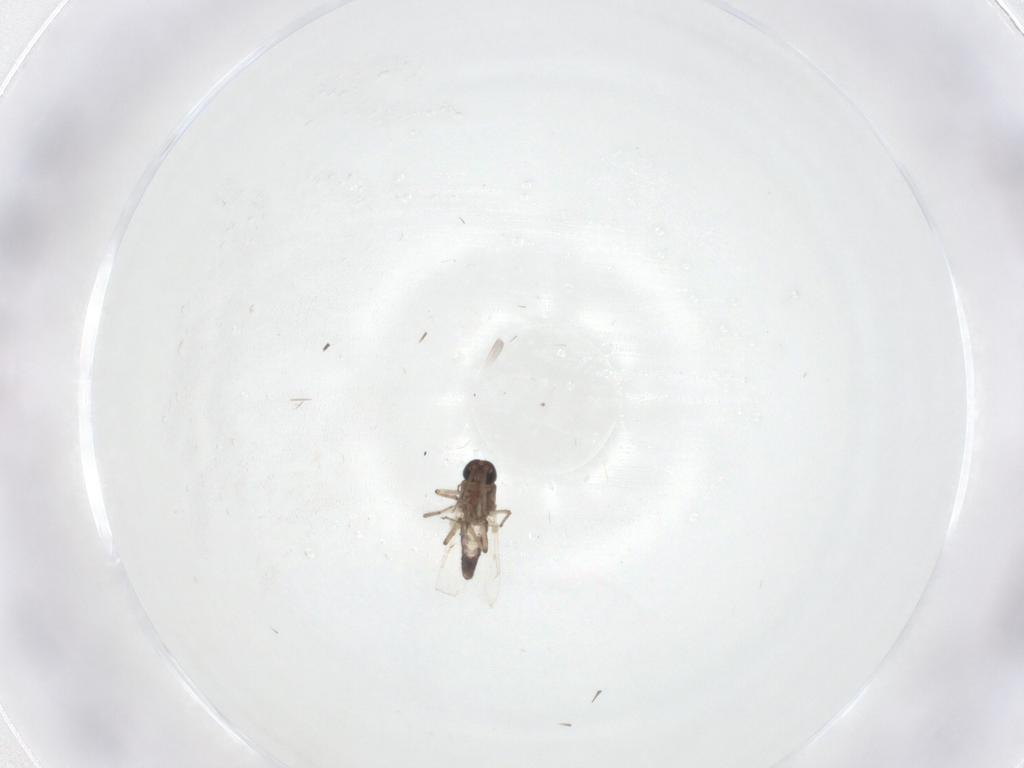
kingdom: Animalia
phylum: Arthropoda
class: Insecta
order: Diptera
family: Ceratopogonidae
